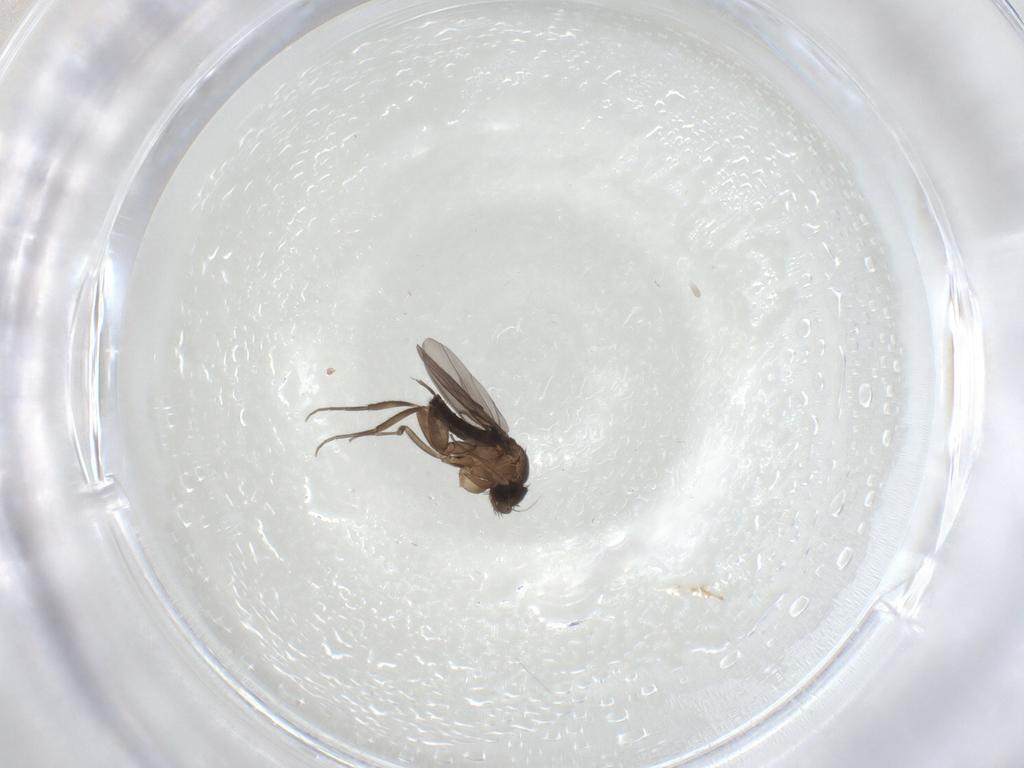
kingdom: Animalia
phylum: Arthropoda
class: Insecta
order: Diptera
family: Phoridae
